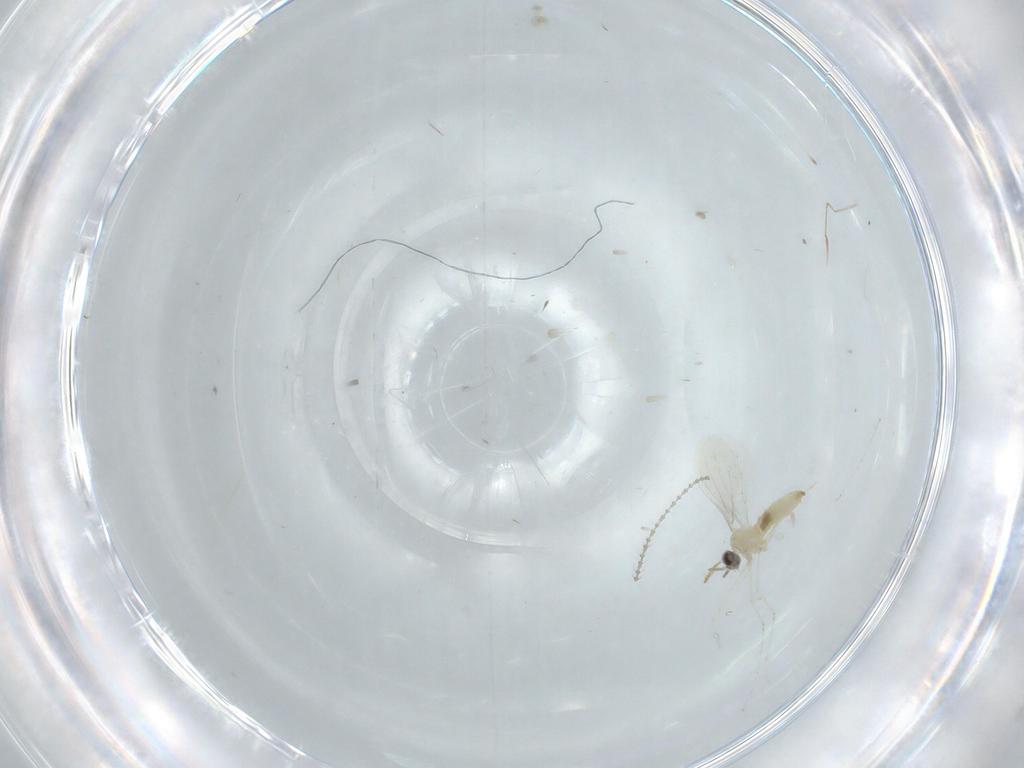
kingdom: Animalia
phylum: Arthropoda
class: Insecta
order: Diptera
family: Cecidomyiidae
